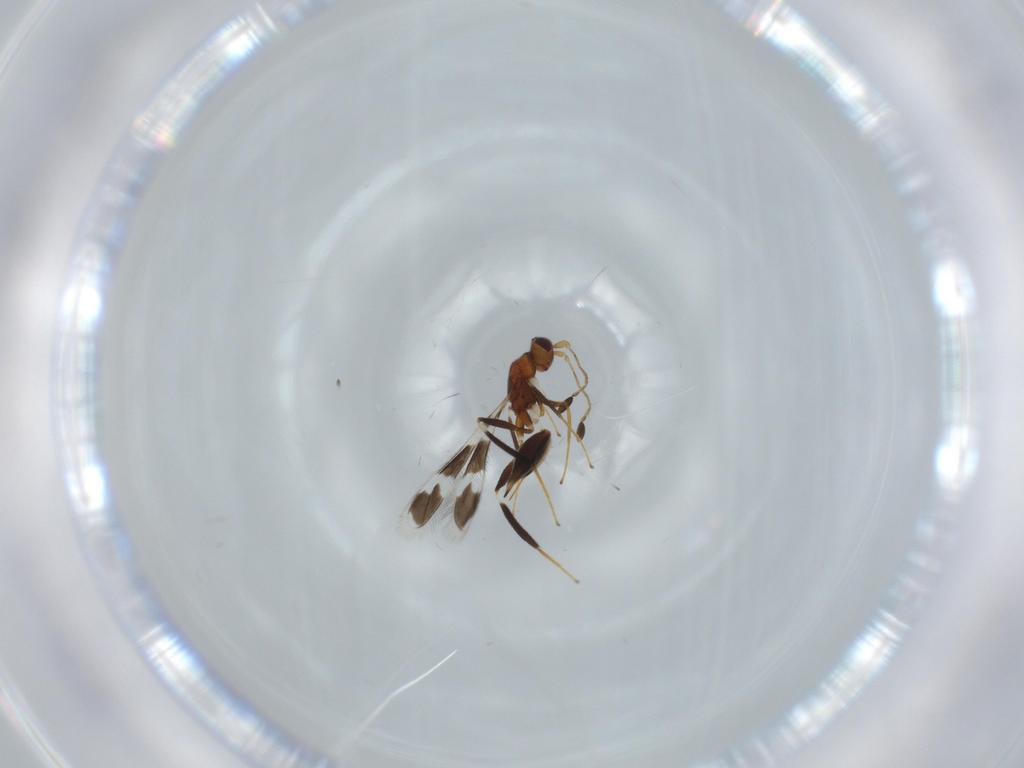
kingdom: Animalia
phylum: Arthropoda
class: Insecta
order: Hymenoptera
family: Mymaridae
